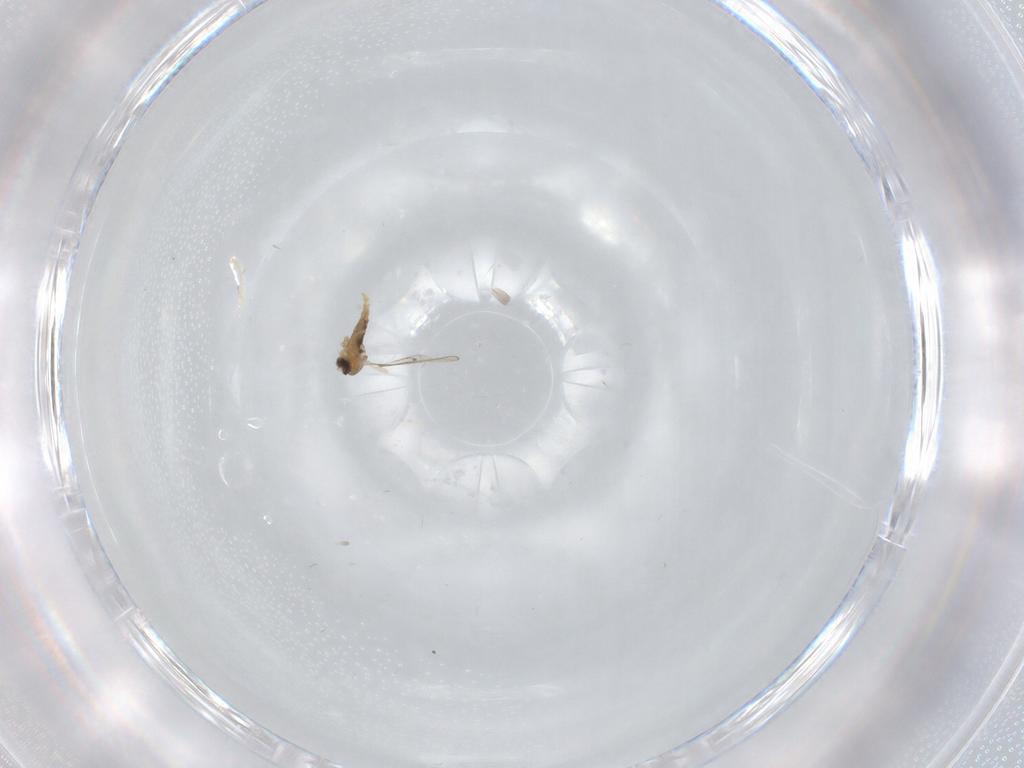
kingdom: Animalia
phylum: Arthropoda
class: Insecta
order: Diptera
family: Cecidomyiidae
